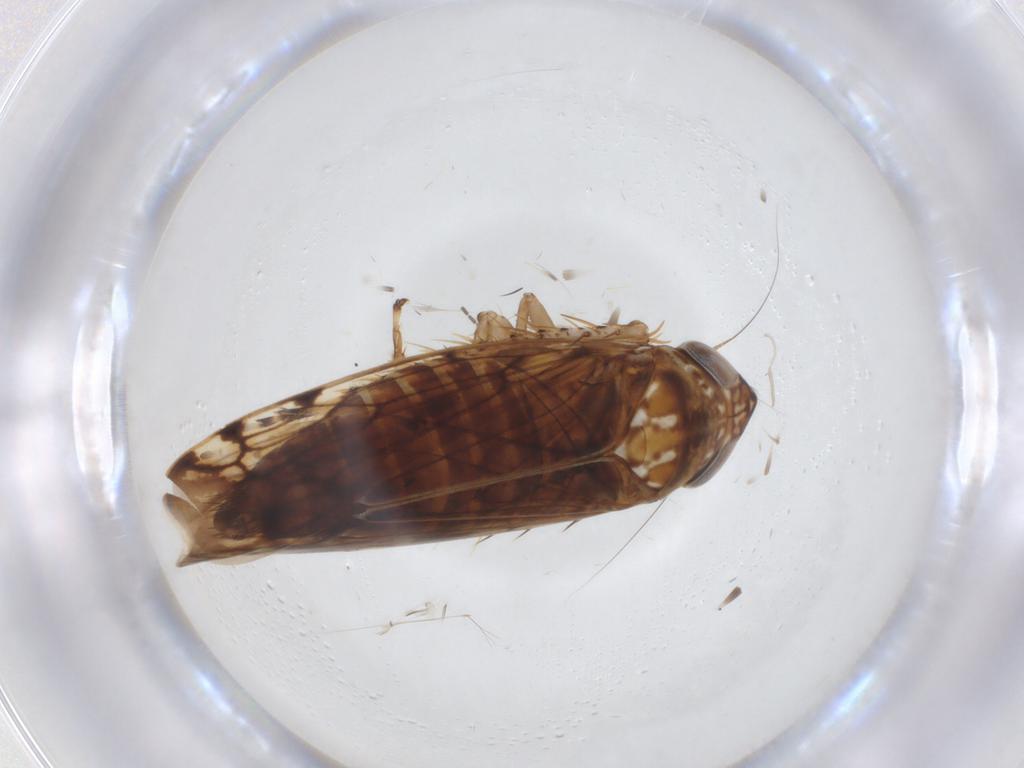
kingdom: Animalia
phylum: Arthropoda
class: Insecta
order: Hemiptera
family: Cicadellidae
